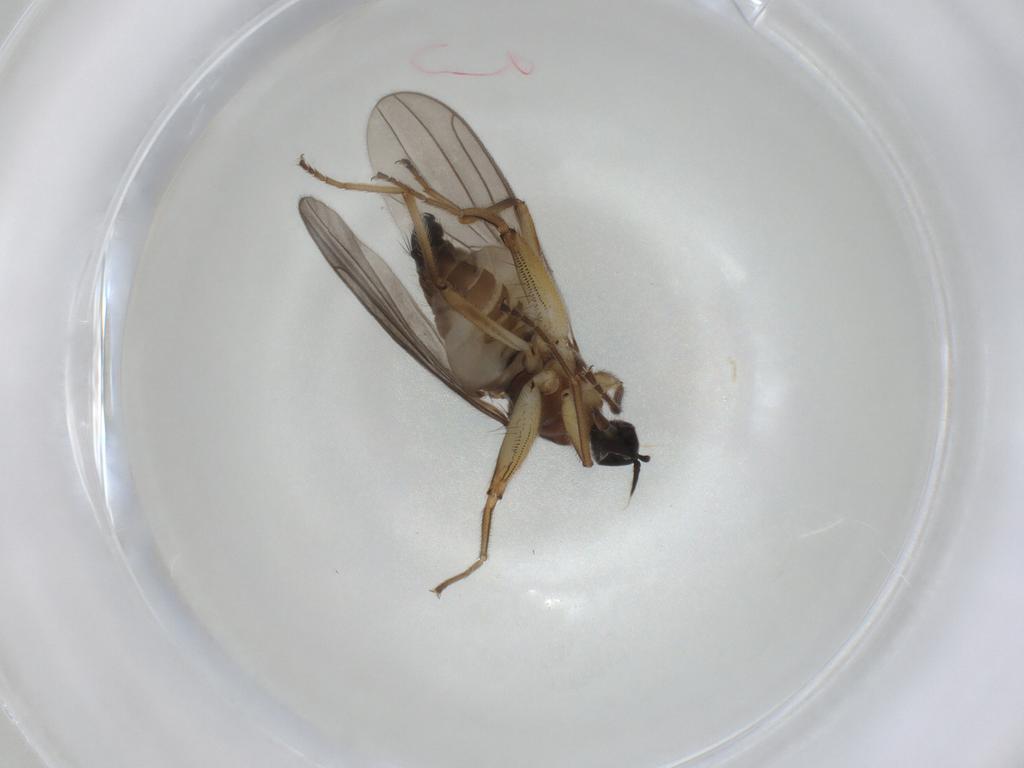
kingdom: Animalia
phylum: Arthropoda
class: Insecta
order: Diptera
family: Hybotidae
